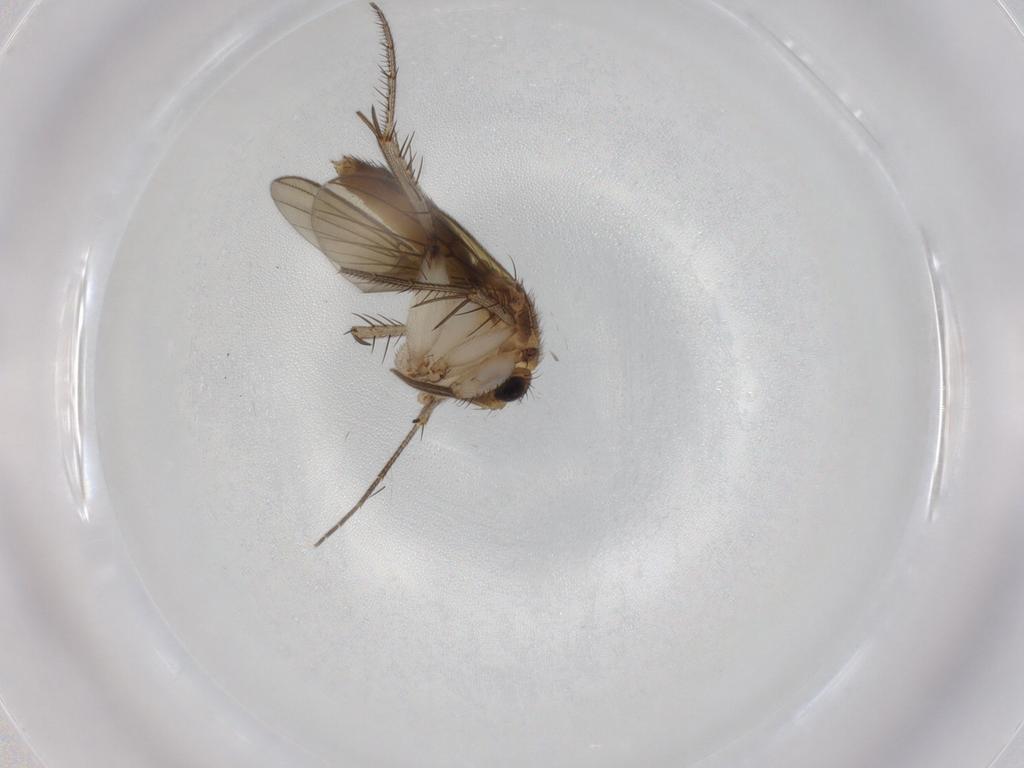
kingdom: Animalia
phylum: Arthropoda
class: Insecta
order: Diptera
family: Chironomidae
